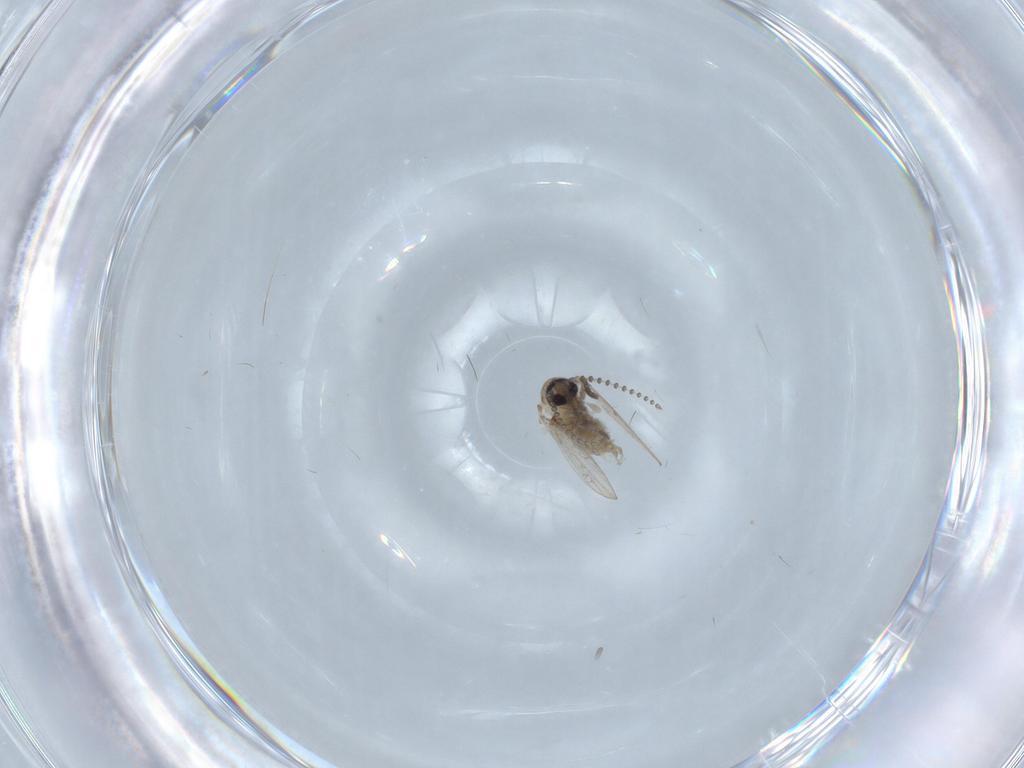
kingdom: Animalia
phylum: Arthropoda
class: Insecta
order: Diptera
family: Psychodidae
